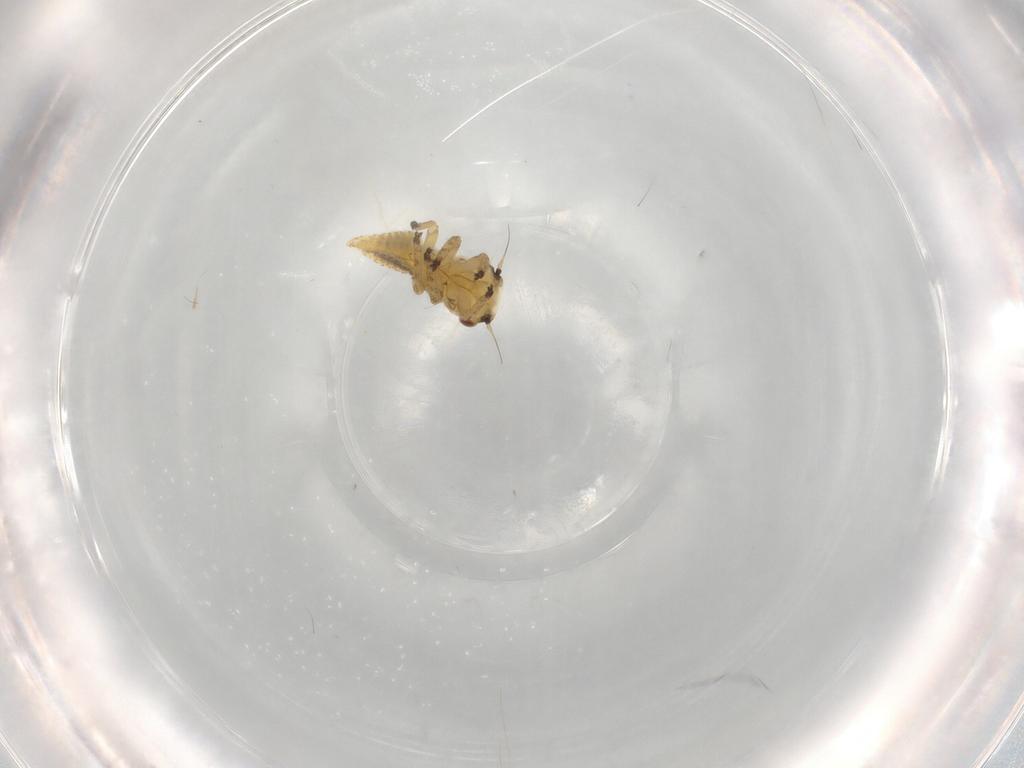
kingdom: Animalia
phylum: Arthropoda
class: Insecta
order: Hemiptera
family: Cicadellidae
